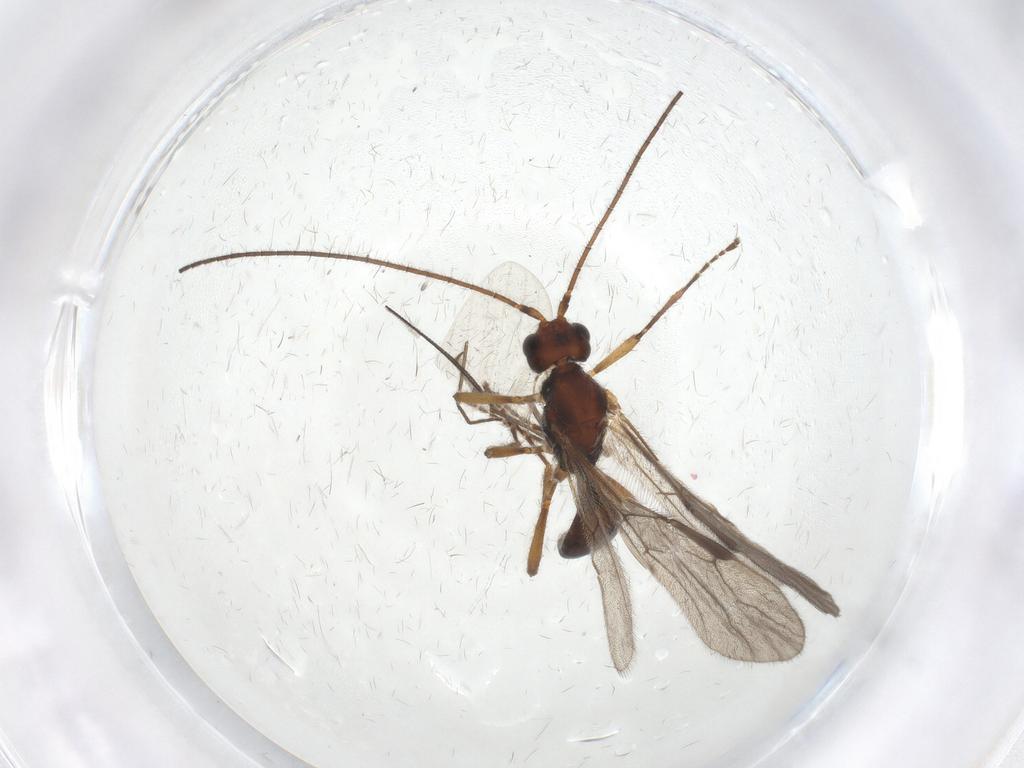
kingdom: Animalia
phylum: Arthropoda
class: Insecta
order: Hymenoptera
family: Braconidae
